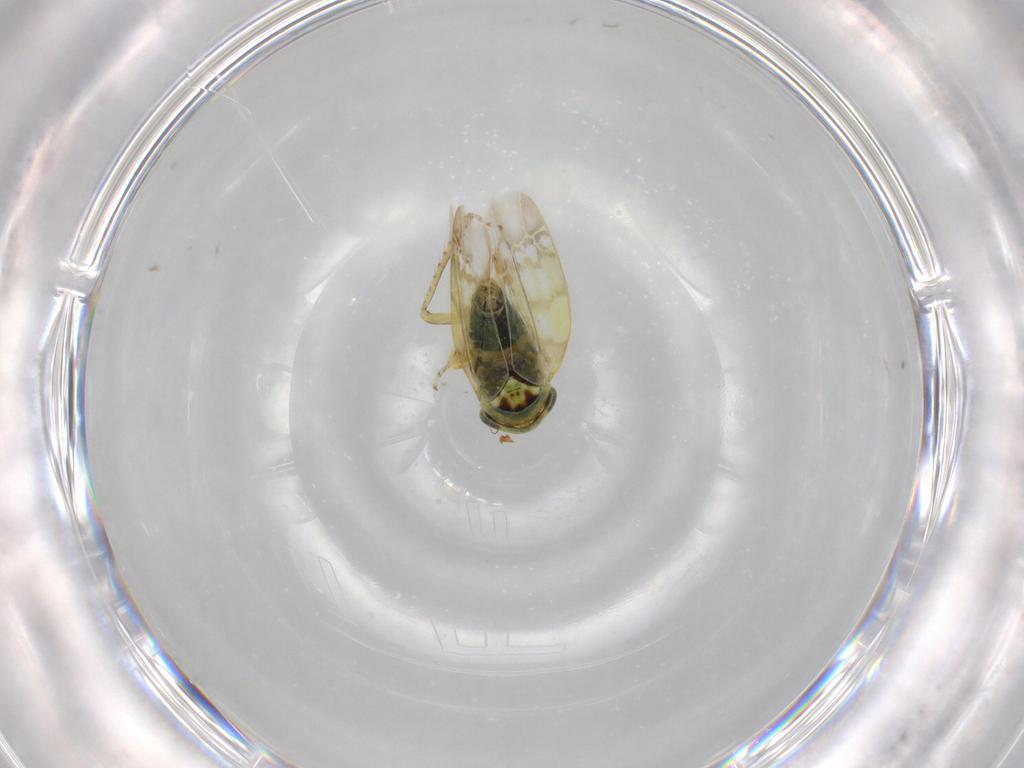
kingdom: Animalia
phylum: Arthropoda
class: Insecta
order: Hemiptera
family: Cicadellidae
